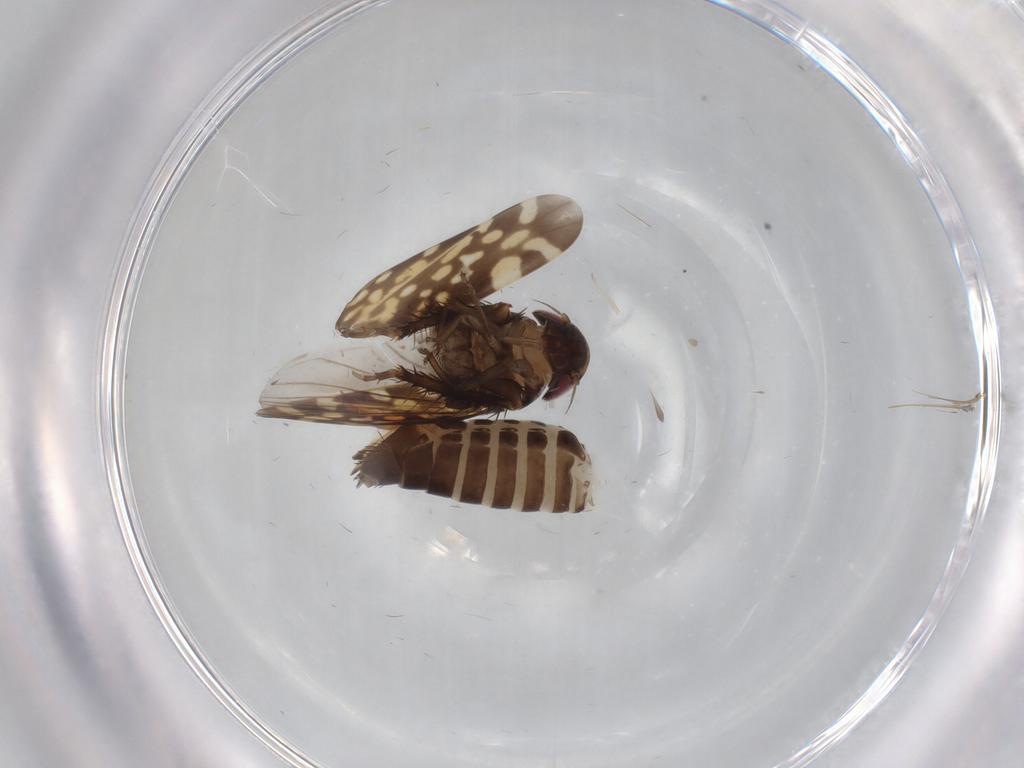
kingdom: Animalia
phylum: Arthropoda
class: Insecta
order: Hemiptera
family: Cicadellidae
